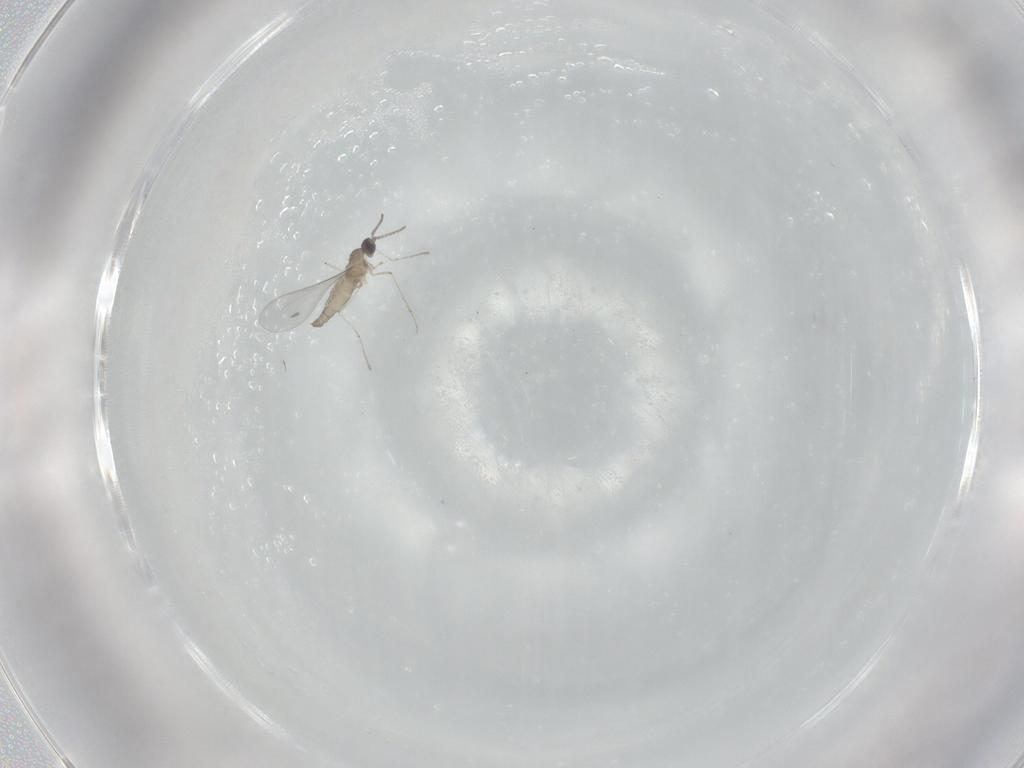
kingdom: Animalia
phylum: Arthropoda
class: Insecta
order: Diptera
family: Cecidomyiidae
